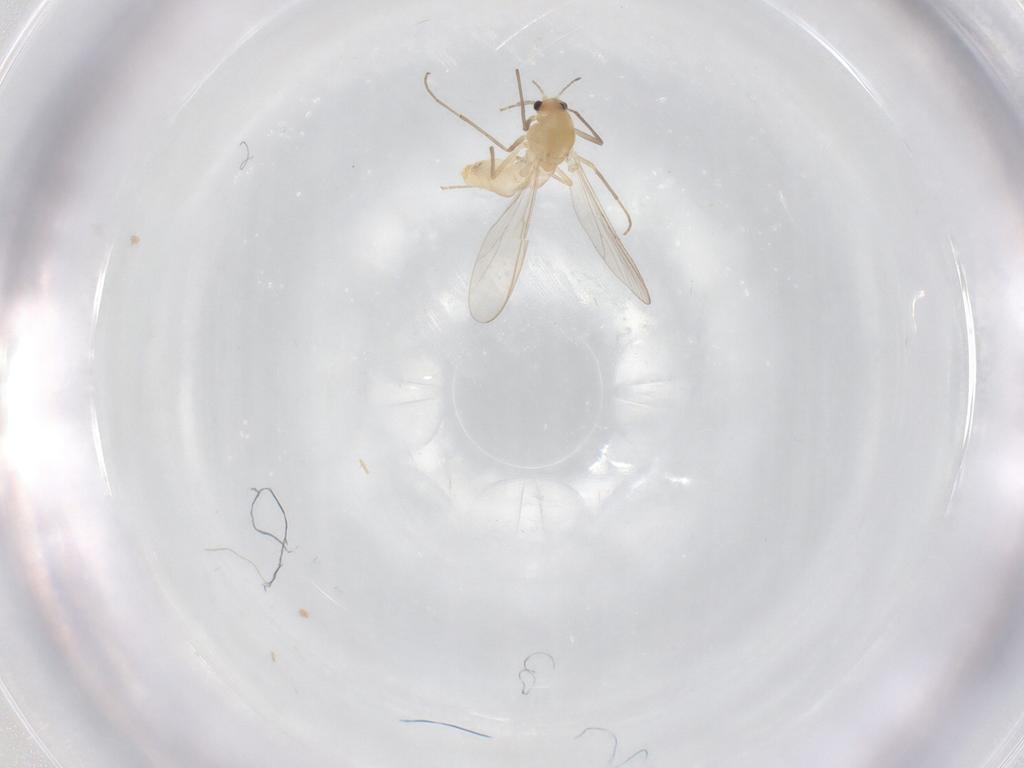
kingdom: Animalia
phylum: Arthropoda
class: Insecta
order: Diptera
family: Chironomidae
